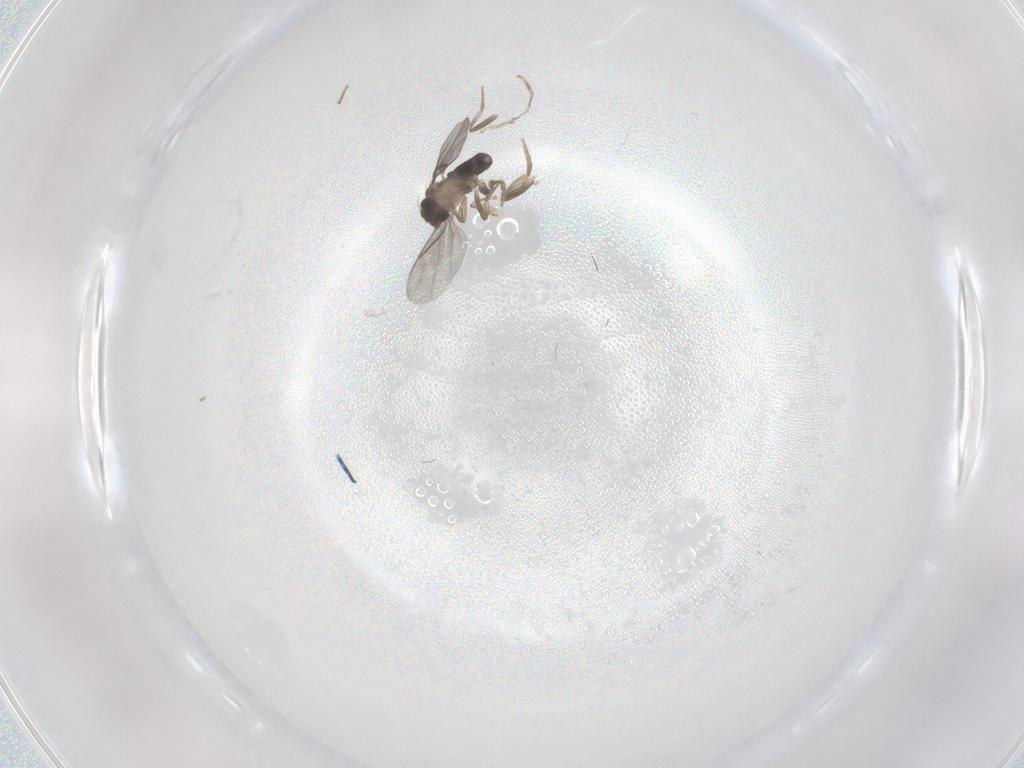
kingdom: Animalia
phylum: Arthropoda
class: Insecta
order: Diptera
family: Phoridae
